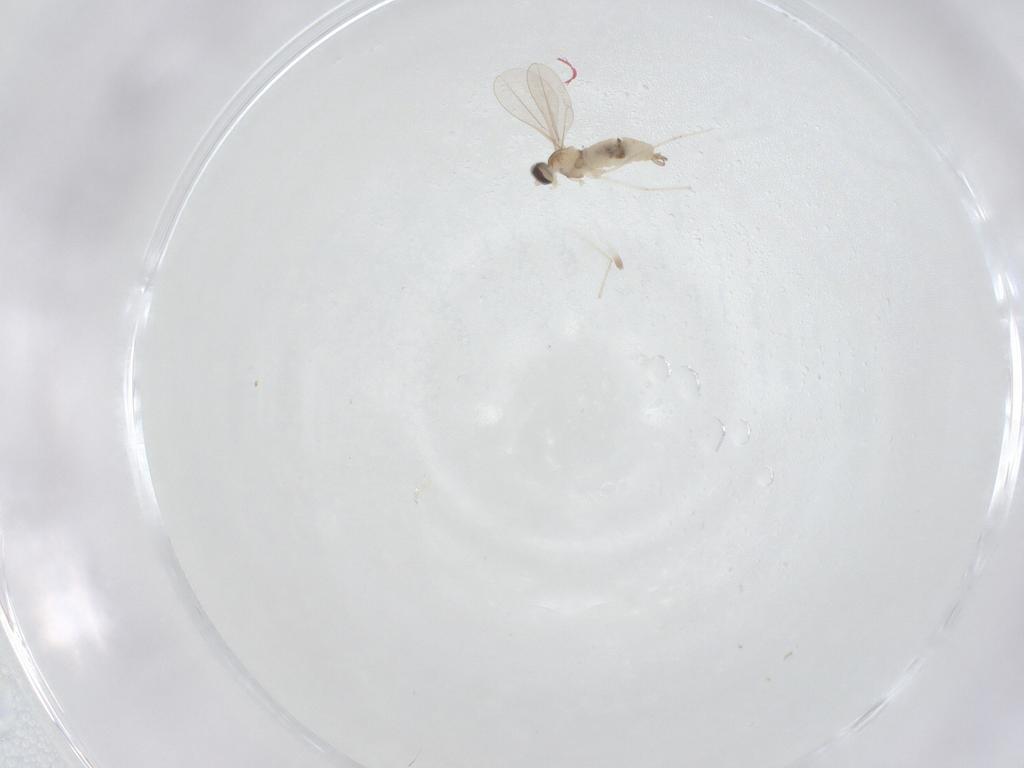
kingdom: Animalia
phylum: Arthropoda
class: Insecta
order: Diptera
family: Cecidomyiidae
